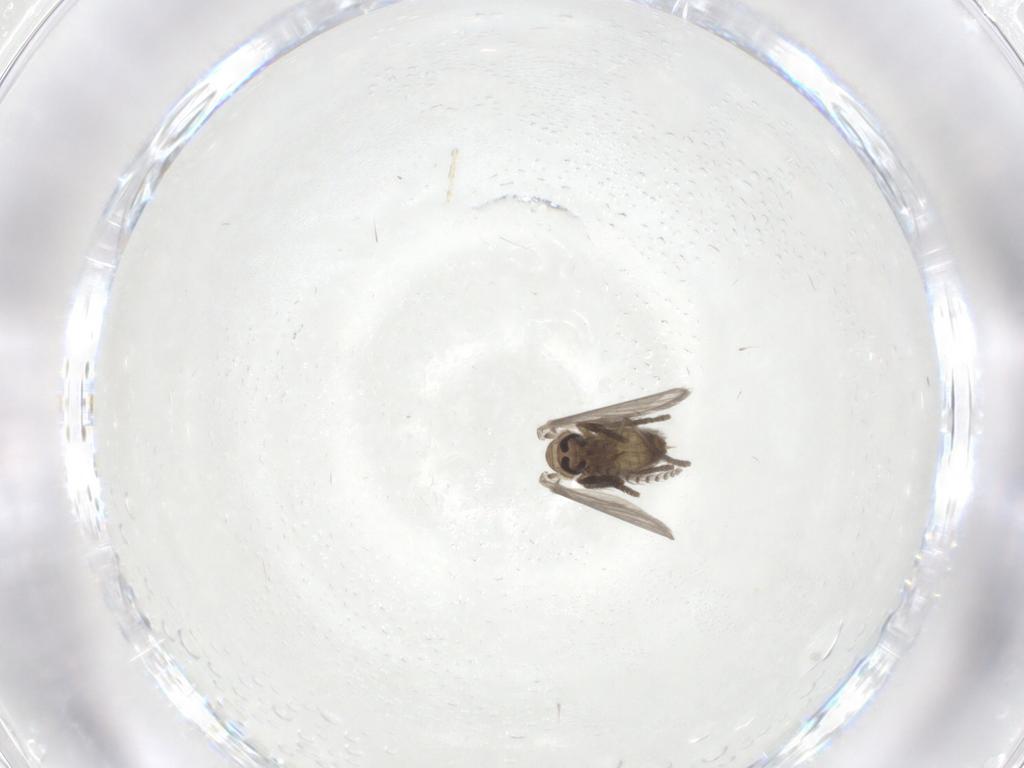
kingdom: Animalia
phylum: Arthropoda
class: Insecta
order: Diptera
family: Psychodidae
